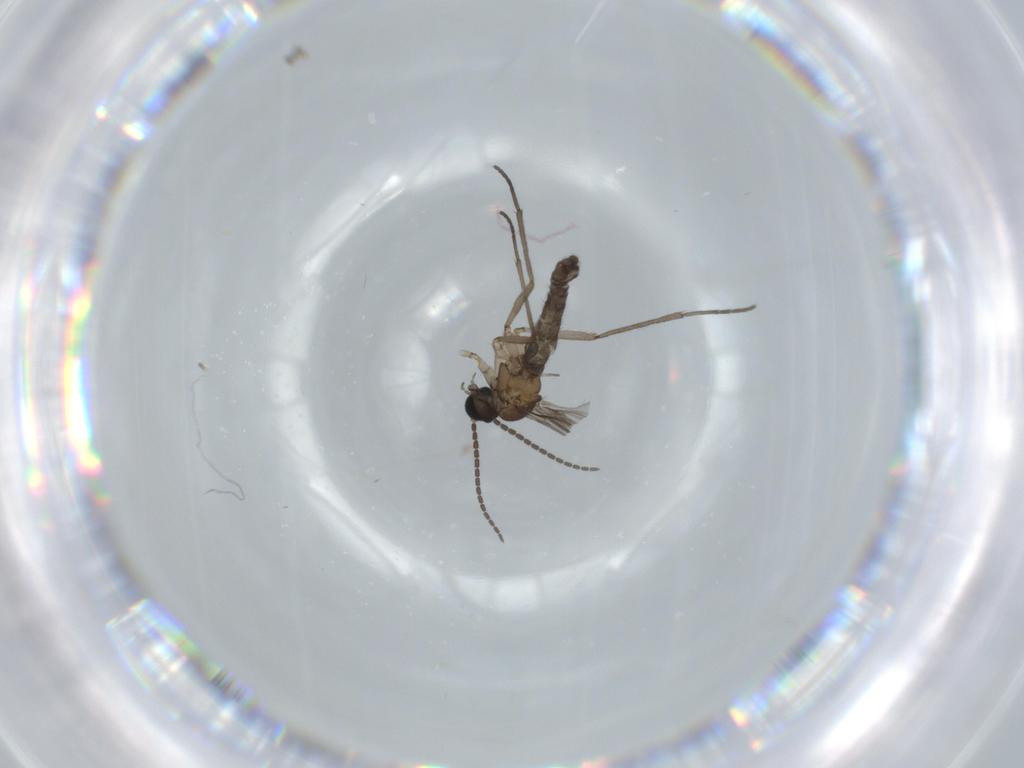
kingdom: Animalia
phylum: Arthropoda
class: Insecta
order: Diptera
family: Sciaridae
